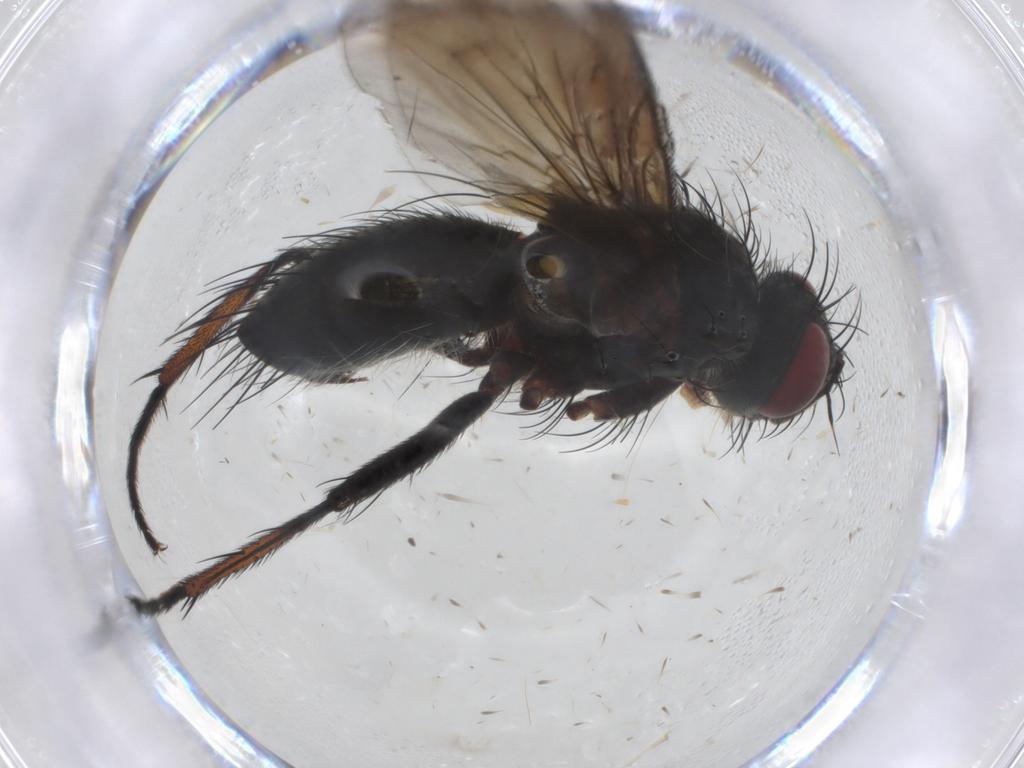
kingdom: Animalia
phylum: Arthropoda
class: Insecta
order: Diptera
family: Tachinidae
